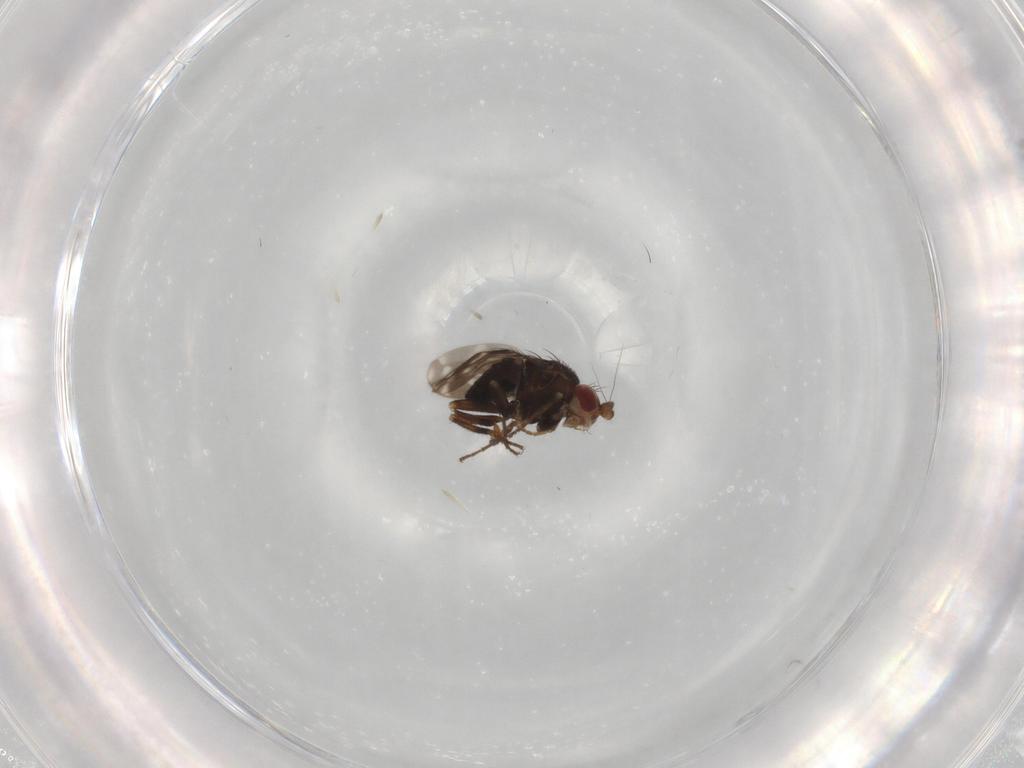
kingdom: Animalia
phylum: Arthropoda
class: Insecta
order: Diptera
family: Sphaeroceridae
